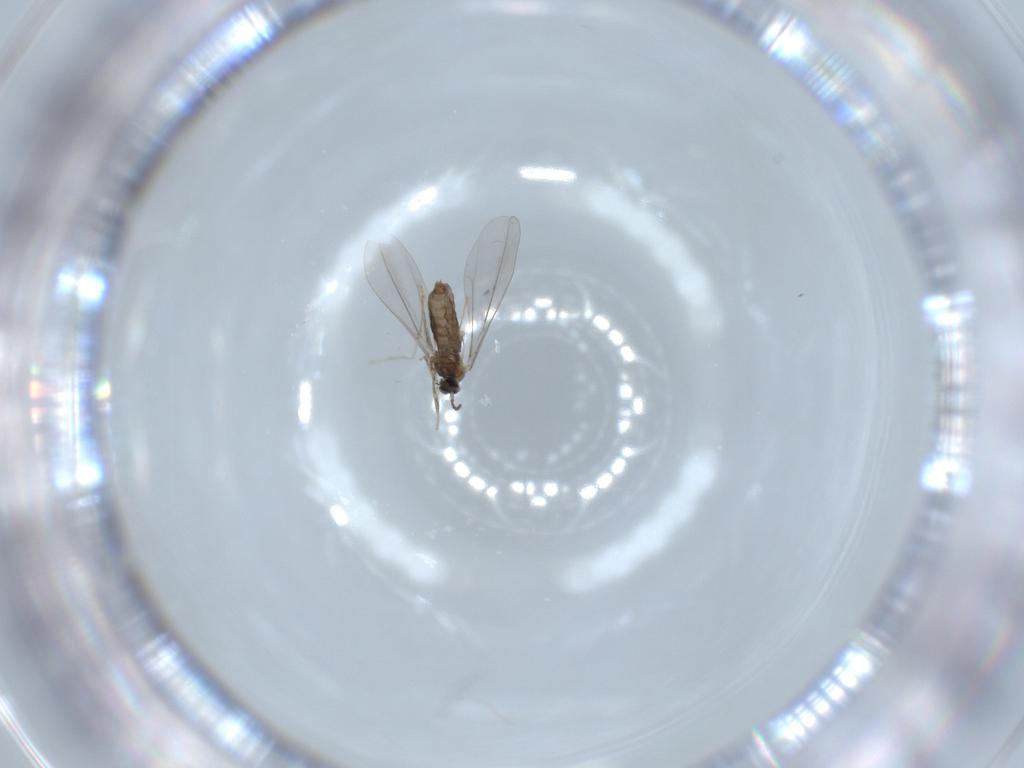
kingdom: Animalia
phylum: Arthropoda
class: Insecta
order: Diptera
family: Cecidomyiidae
